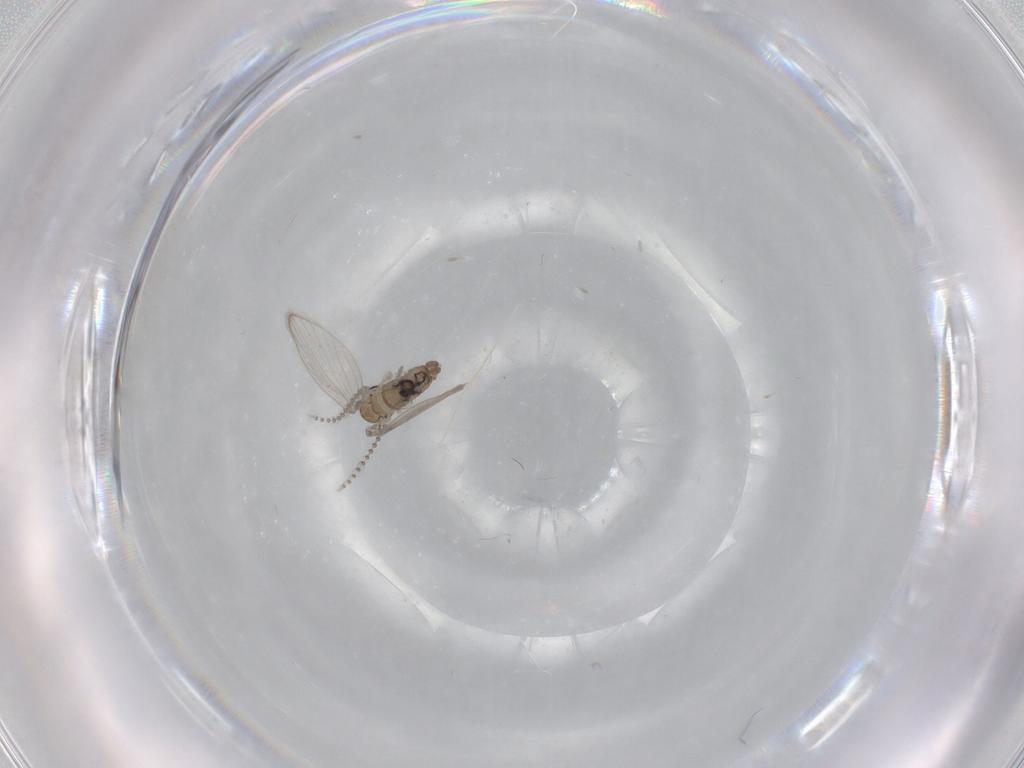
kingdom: Animalia
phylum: Arthropoda
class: Insecta
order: Diptera
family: Psychodidae
